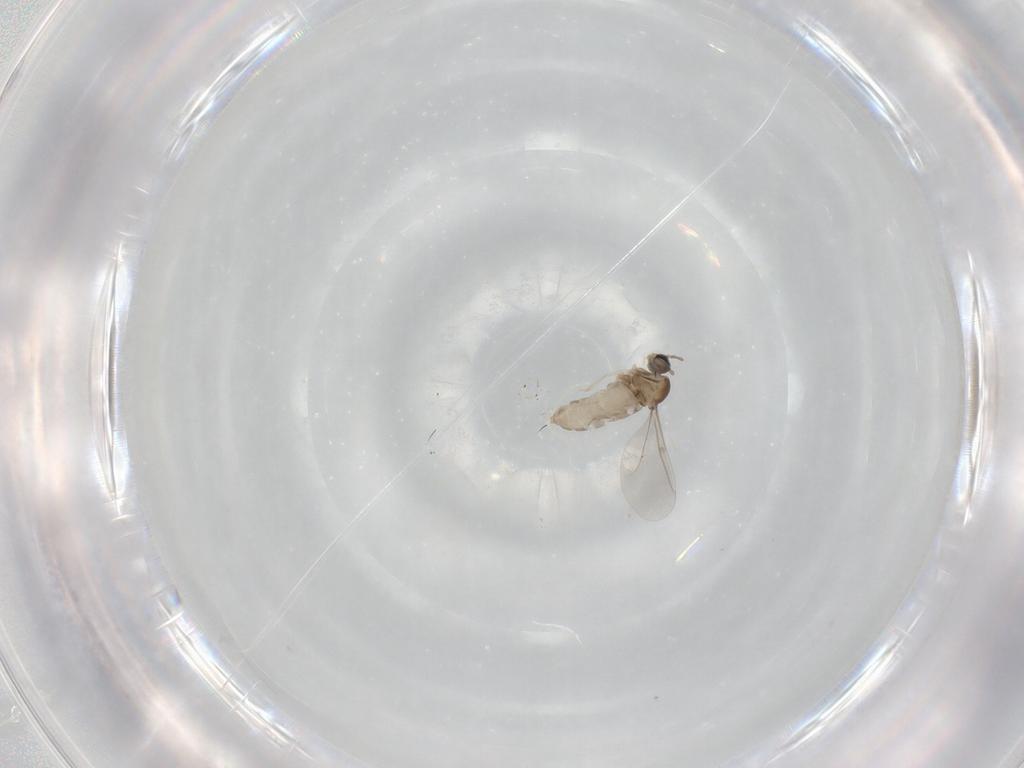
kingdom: Animalia
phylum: Arthropoda
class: Insecta
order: Diptera
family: Cecidomyiidae
